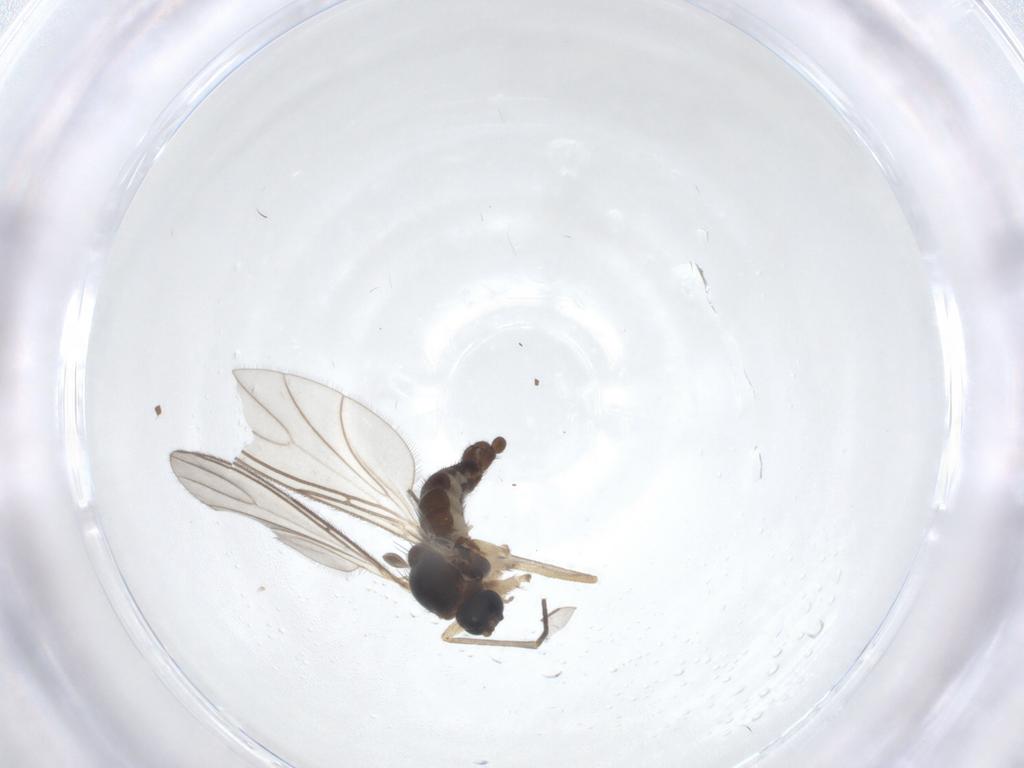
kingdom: Animalia
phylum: Arthropoda
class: Insecta
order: Diptera
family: Sciaridae
